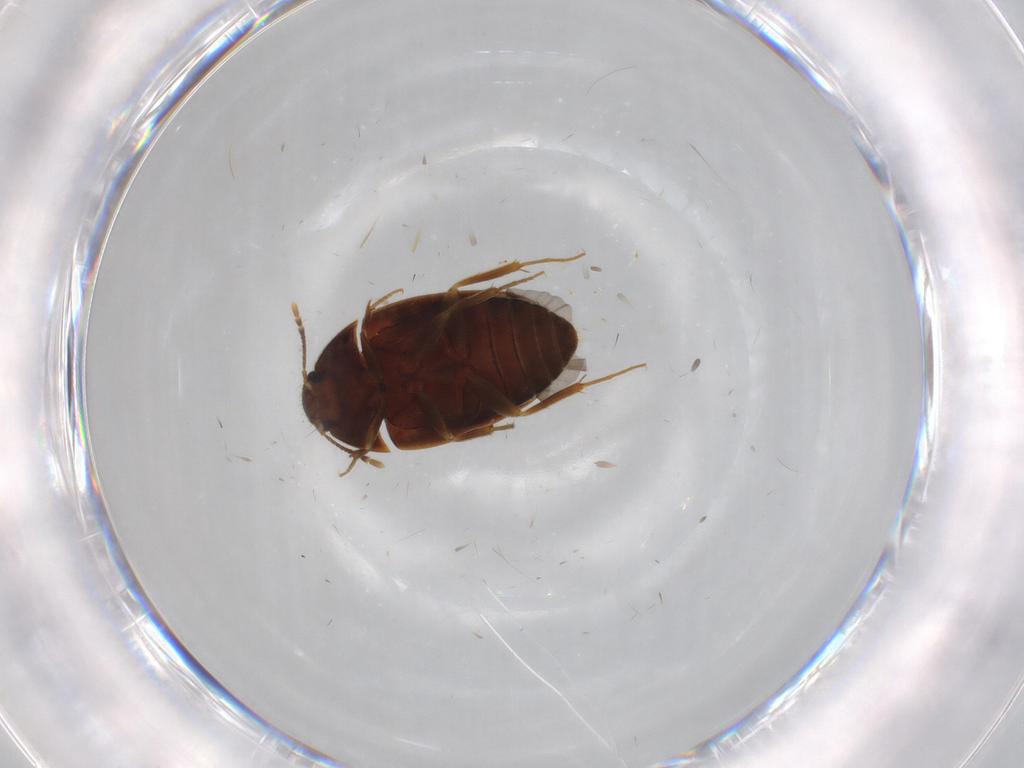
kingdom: Animalia
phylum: Arthropoda
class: Insecta
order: Coleoptera
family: Mycetophagidae
